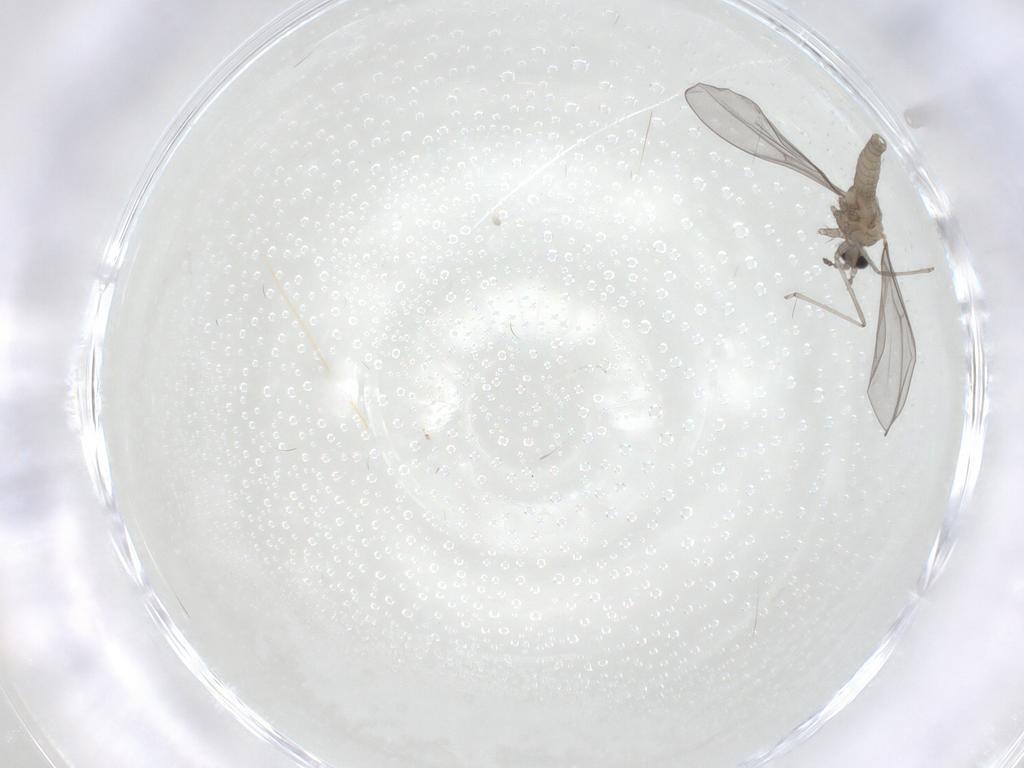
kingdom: Animalia
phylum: Arthropoda
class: Insecta
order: Diptera
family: Cecidomyiidae
